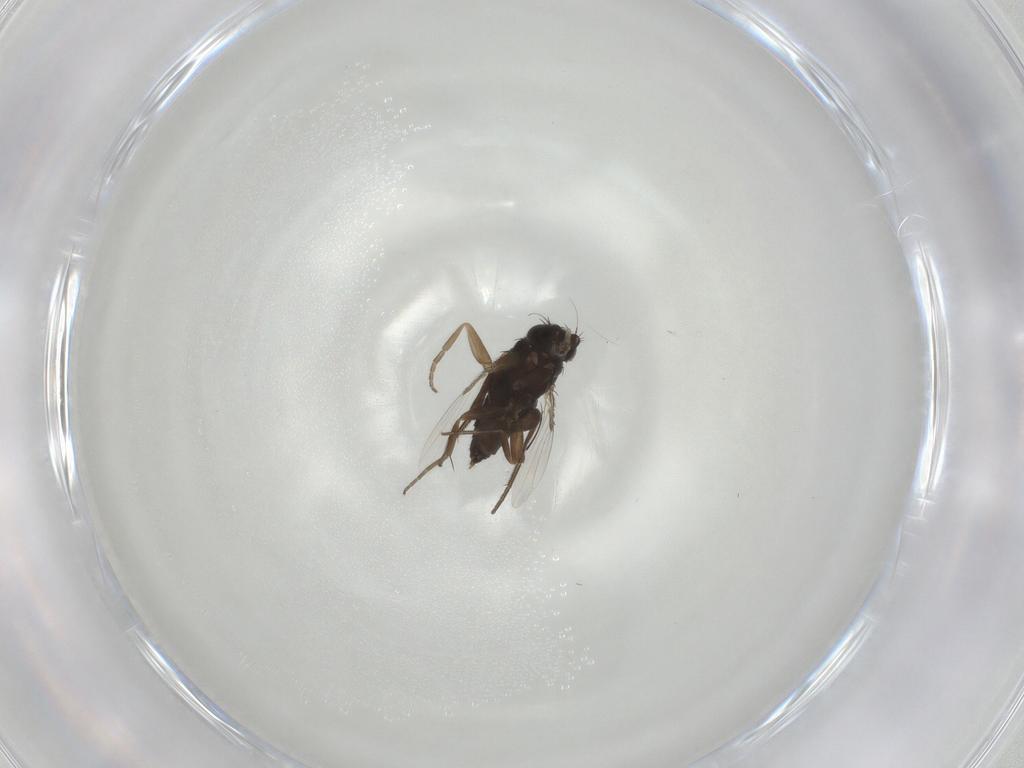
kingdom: Animalia
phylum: Arthropoda
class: Insecta
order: Diptera
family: Phoridae
